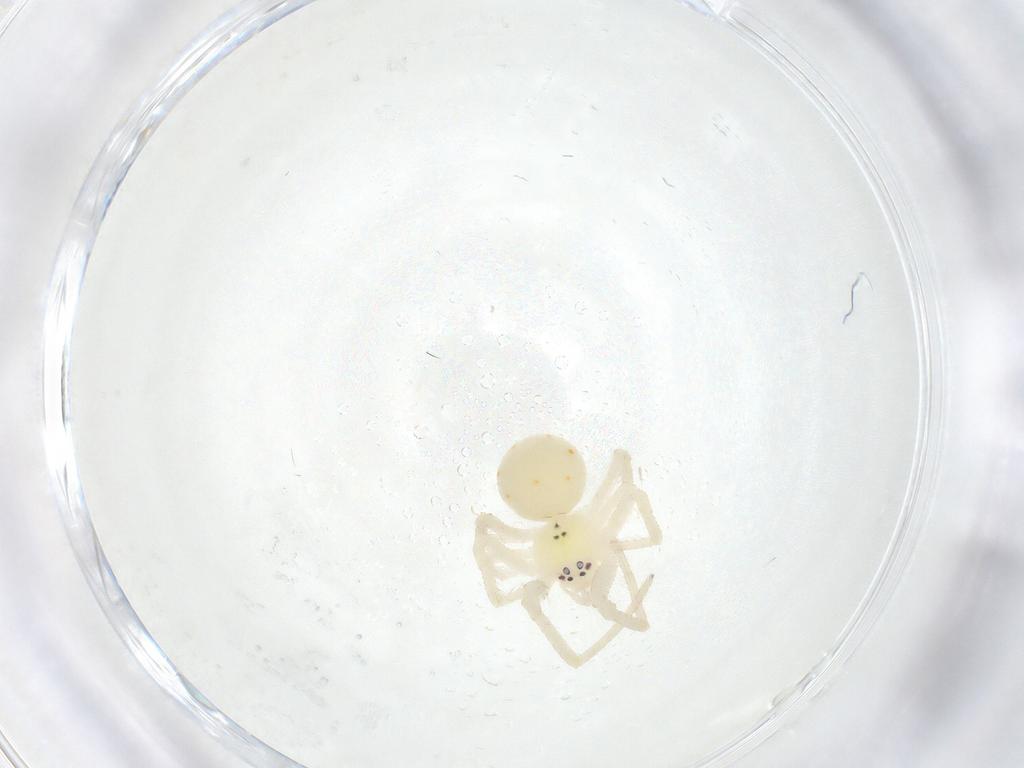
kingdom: Animalia
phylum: Arthropoda
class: Arachnida
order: Araneae
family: Theridiidae
